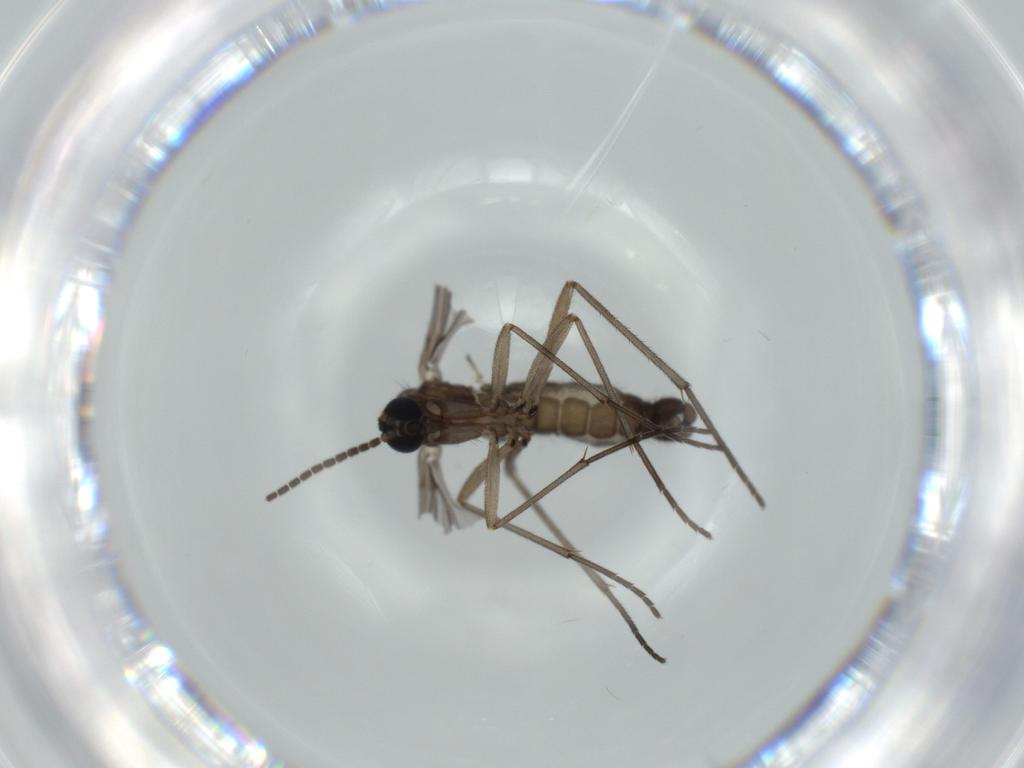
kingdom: Animalia
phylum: Arthropoda
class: Insecta
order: Diptera
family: Sciaridae
